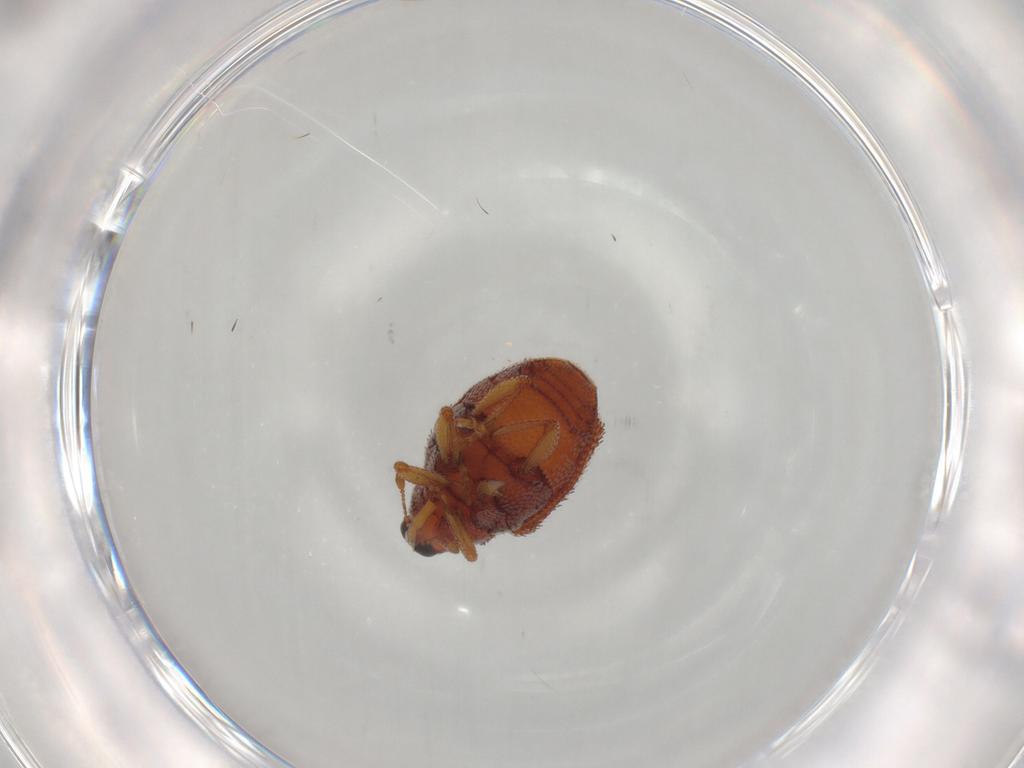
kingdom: Animalia
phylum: Arthropoda
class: Insecta
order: Coleoptera
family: Curculionidae
